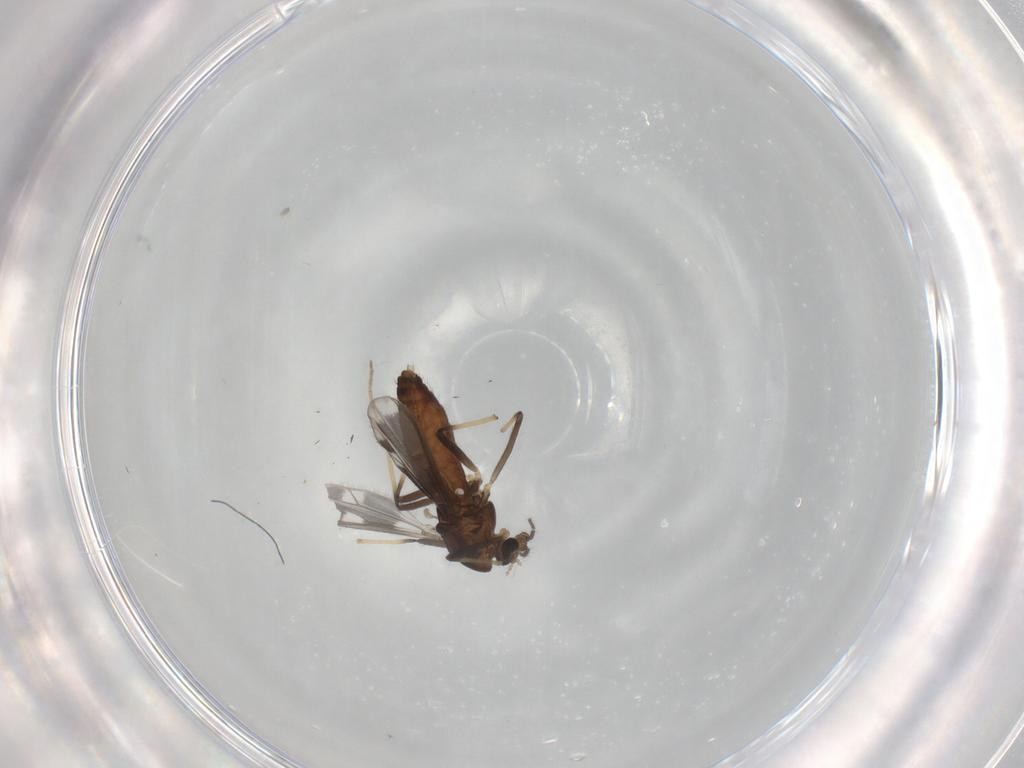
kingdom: Animalia
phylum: Arthropoda
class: Insecta
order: Diptera
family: Chironomidae
